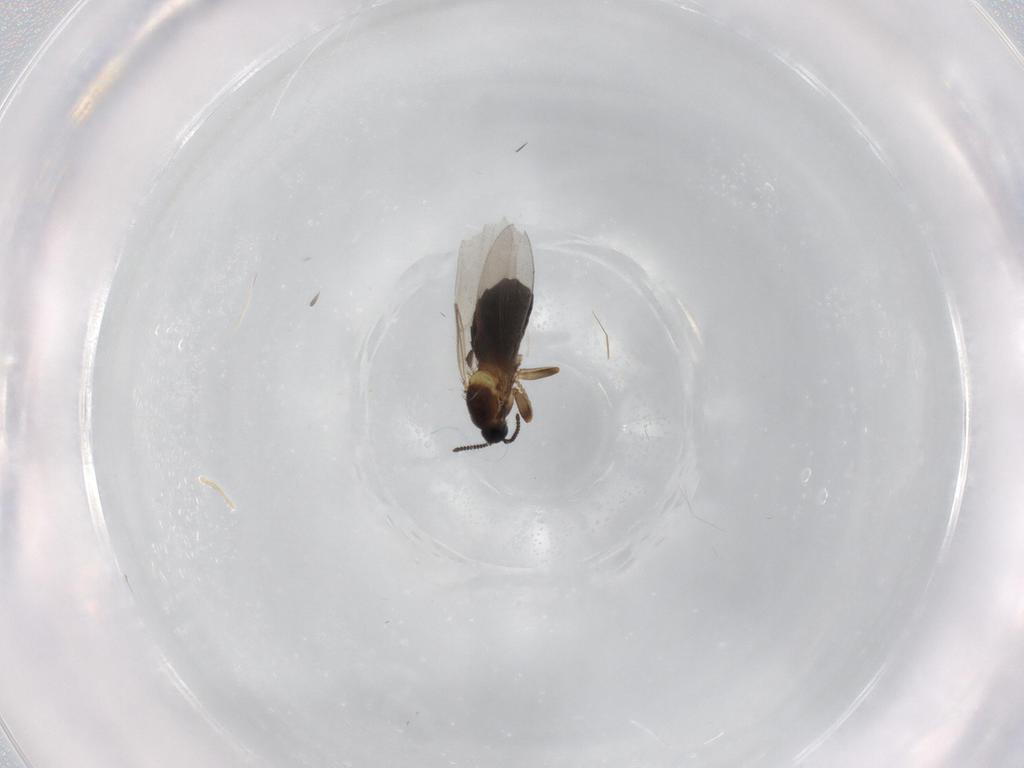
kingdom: Animalia
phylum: Arthropoda
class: Insecta
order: Diptera
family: Scatopsidae
